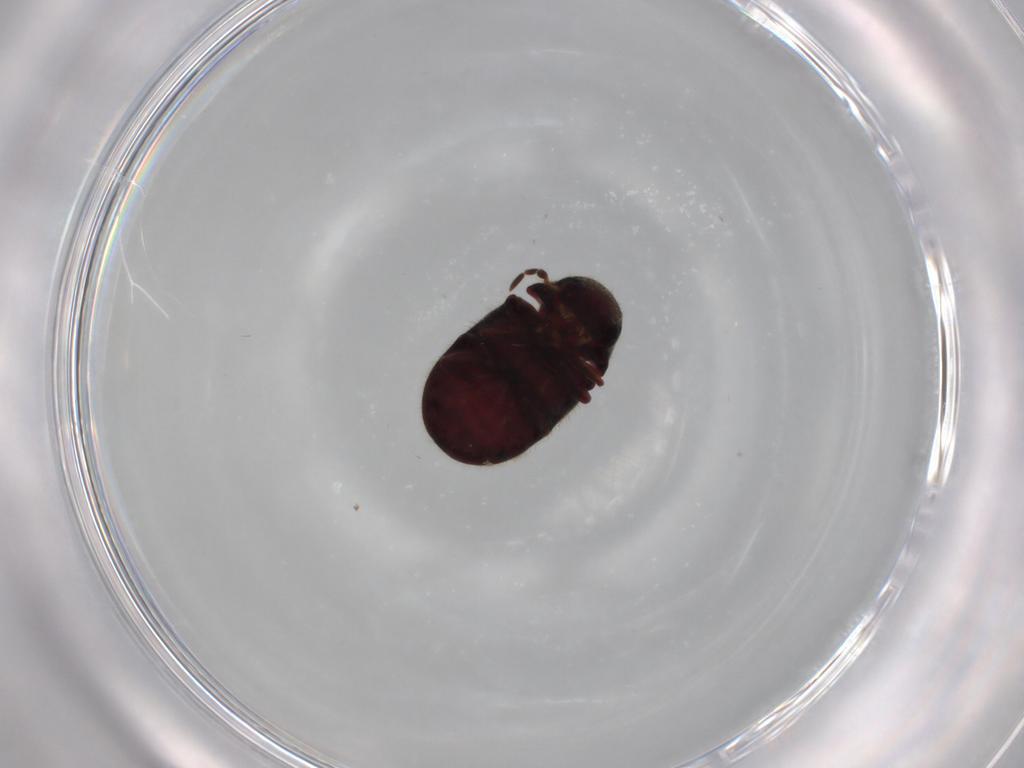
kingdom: Animalia
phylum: Arthropoda
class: Insecta
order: Coleoptera
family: Ptinidae
